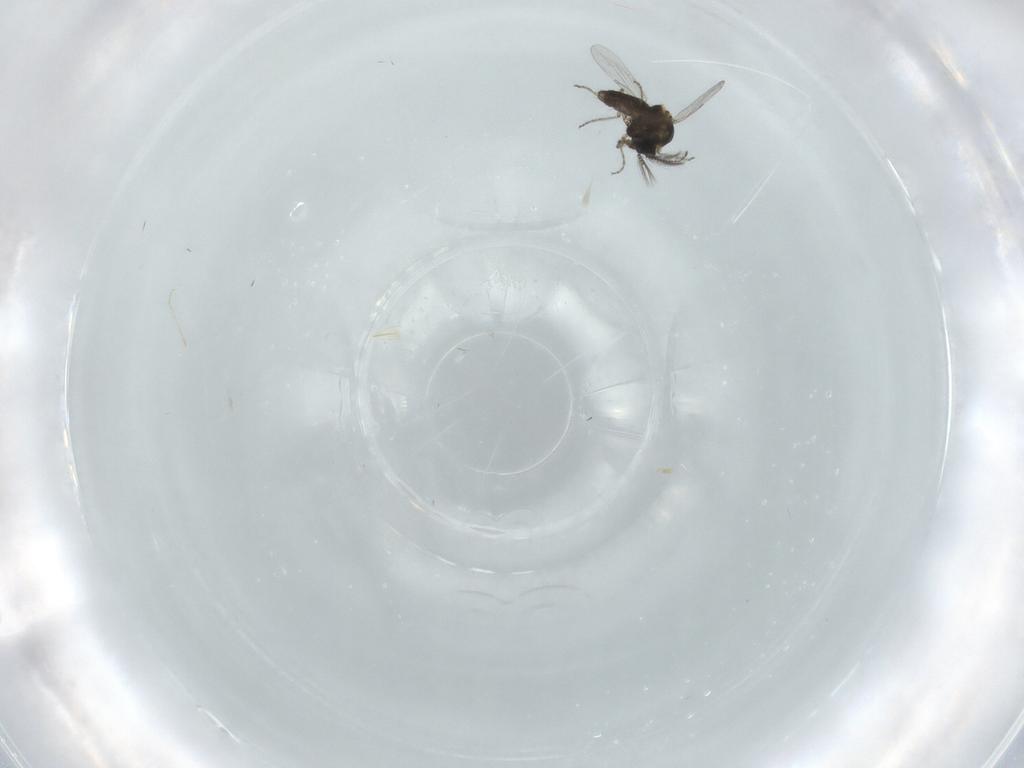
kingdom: Animalia
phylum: Arthropoda
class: Insecta
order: Diptera
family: Ceratopogonidae
